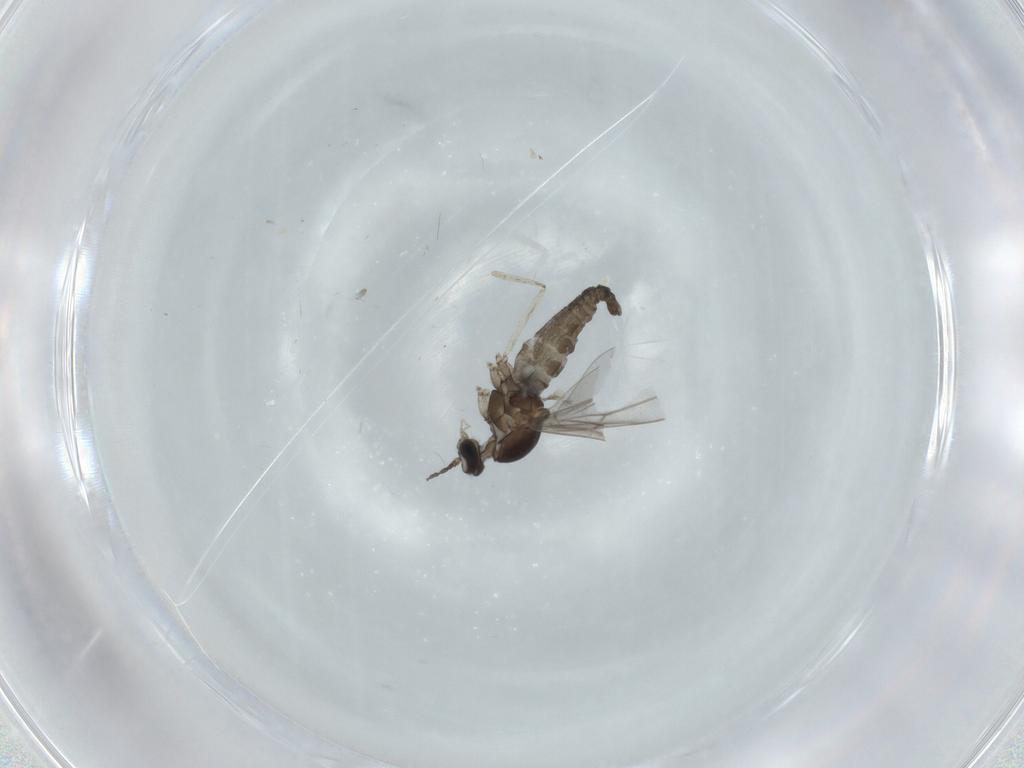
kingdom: Animalia
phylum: Arthropoda
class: Insecta
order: Diptera
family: Cecidomyiidae
